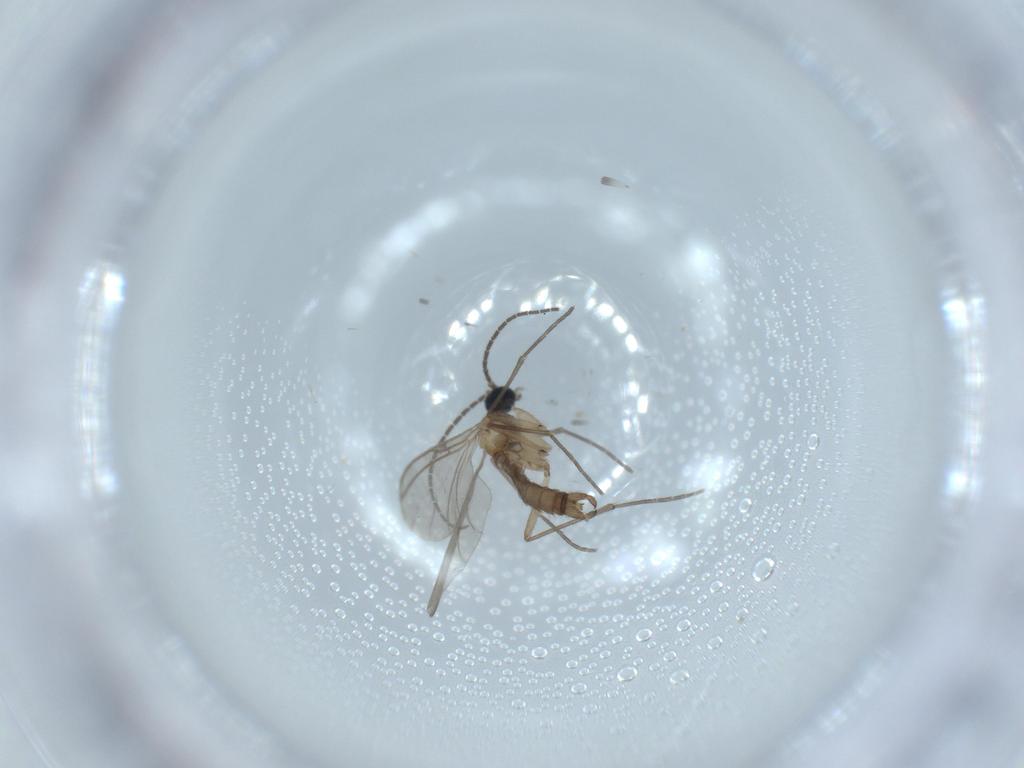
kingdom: Animalia
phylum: Arthropoda
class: Insecta
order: Diptera
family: Sciaridae
